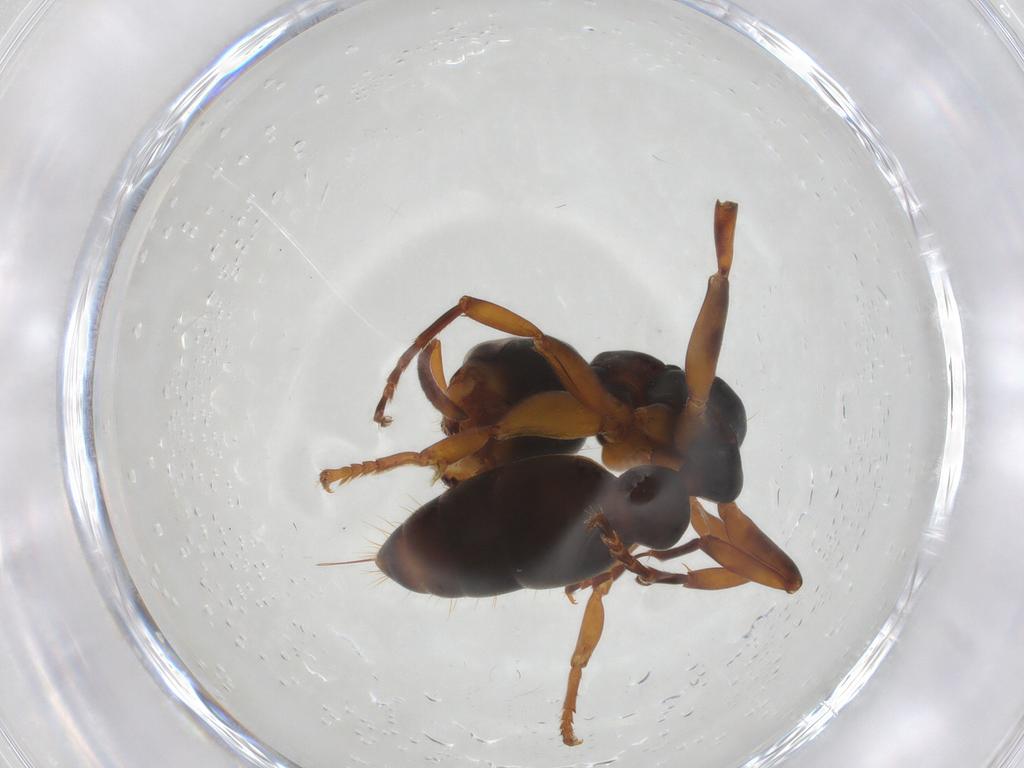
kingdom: Animalia
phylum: Arthropoda
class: Insecta
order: Hymenoptera
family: Formicidae
